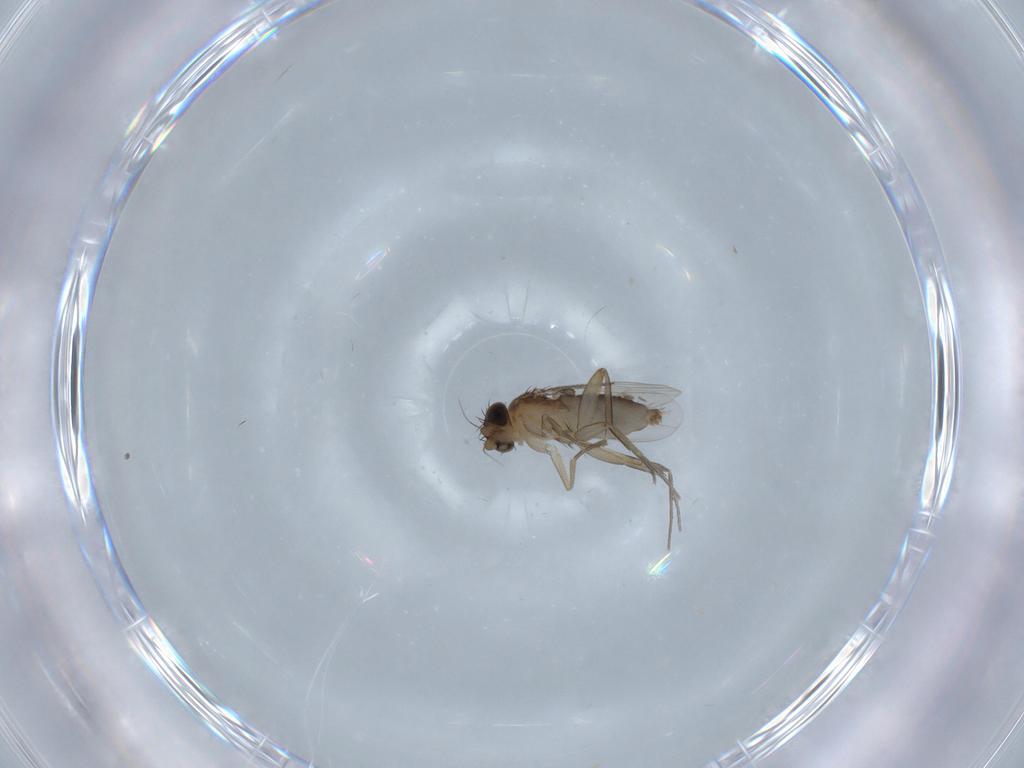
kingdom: Animalia
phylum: Arthropoda
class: Insecta
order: Diptera
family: Phoridae
